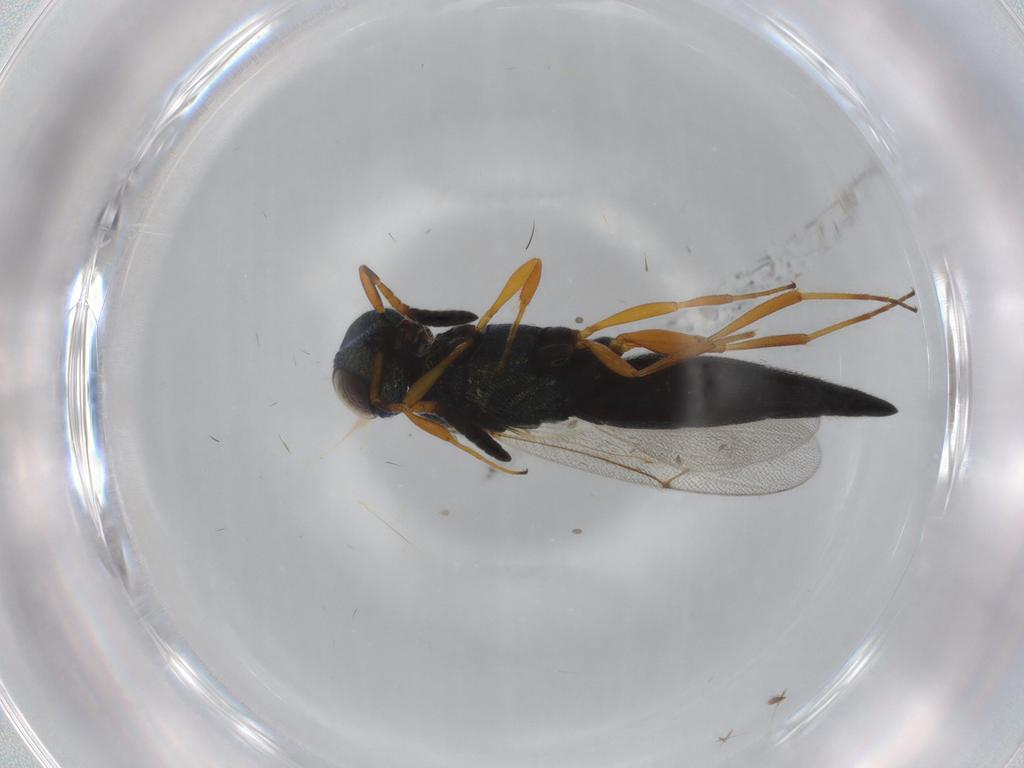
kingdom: Animalia
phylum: Arthropoda
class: Insecta
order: Hymenoptera
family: Scelionidae
